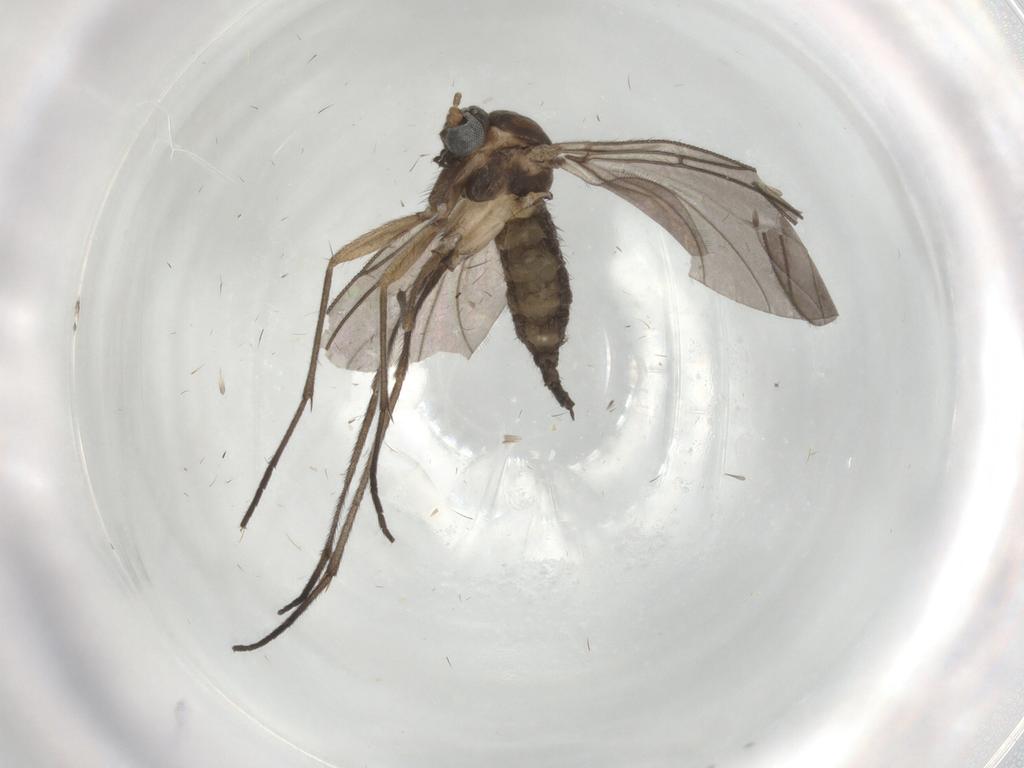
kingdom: Animalia
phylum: Arthropoda
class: Insecta
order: Diptera
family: Sciaridae
